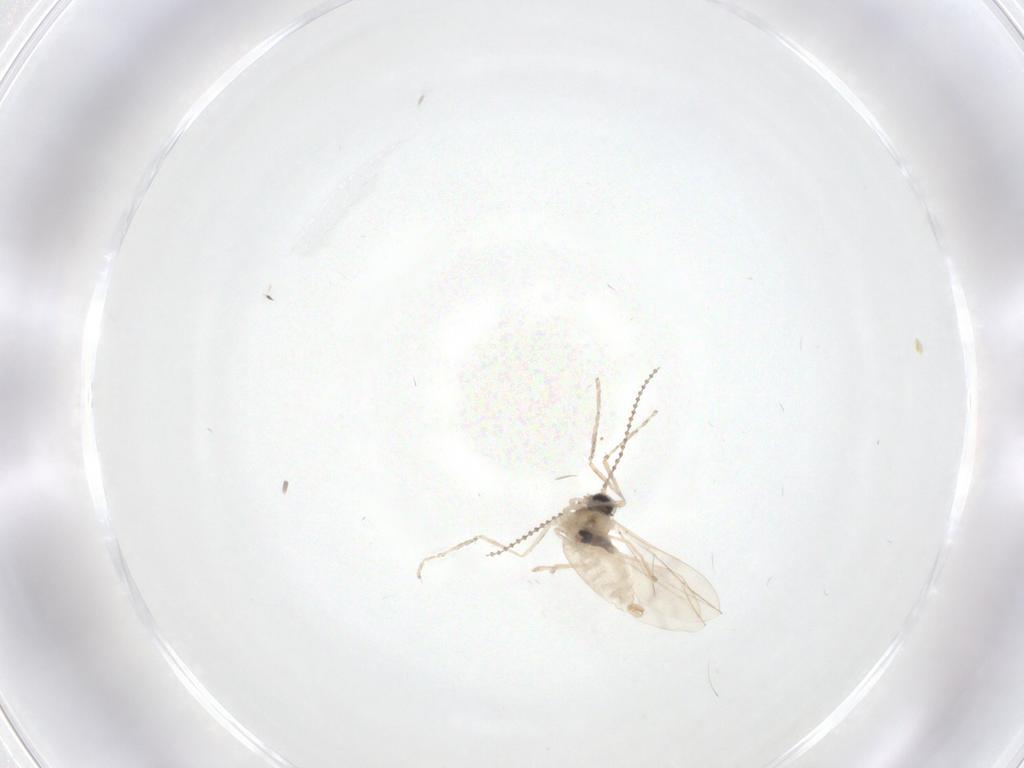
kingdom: Animalia
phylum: Arthropoda
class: Insecta
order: Diptera
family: Cecidomyiidae
